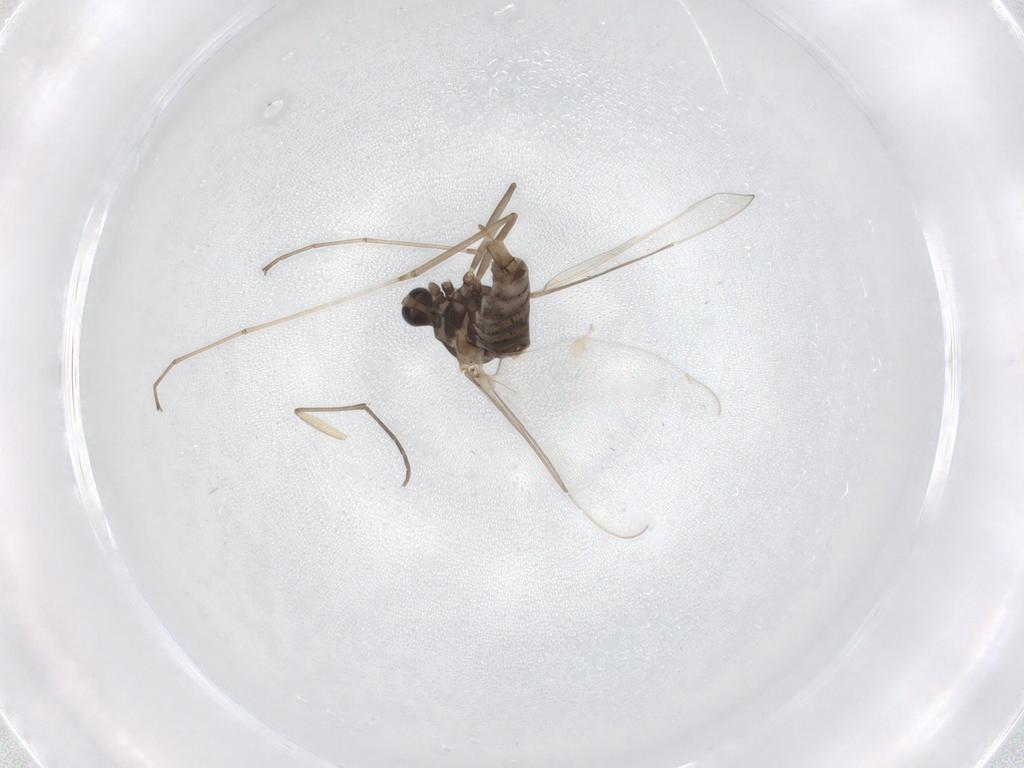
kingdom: Animalia
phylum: Arthropoda
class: Insecta
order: Diptera
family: Cecidomyiidae
